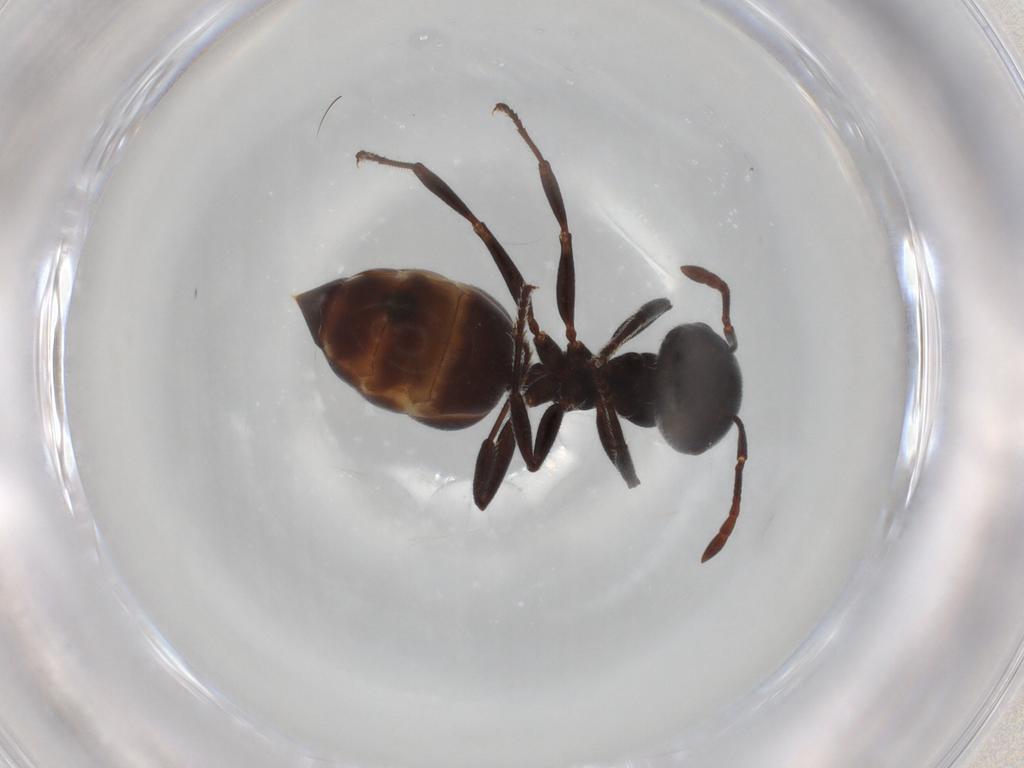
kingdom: Animalia
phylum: Arthropoda
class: Insecta
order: Hymenoptera
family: Formicidae
